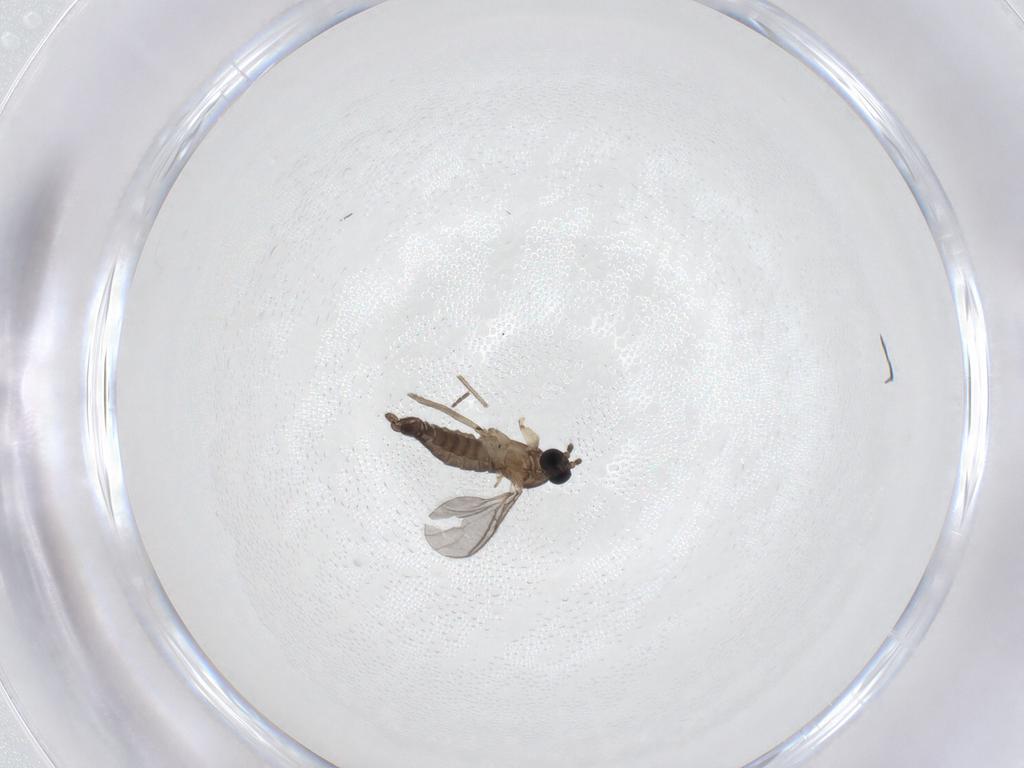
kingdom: Animalia
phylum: Arthropoda
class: Insecta
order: Diptera
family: Sciaridae
